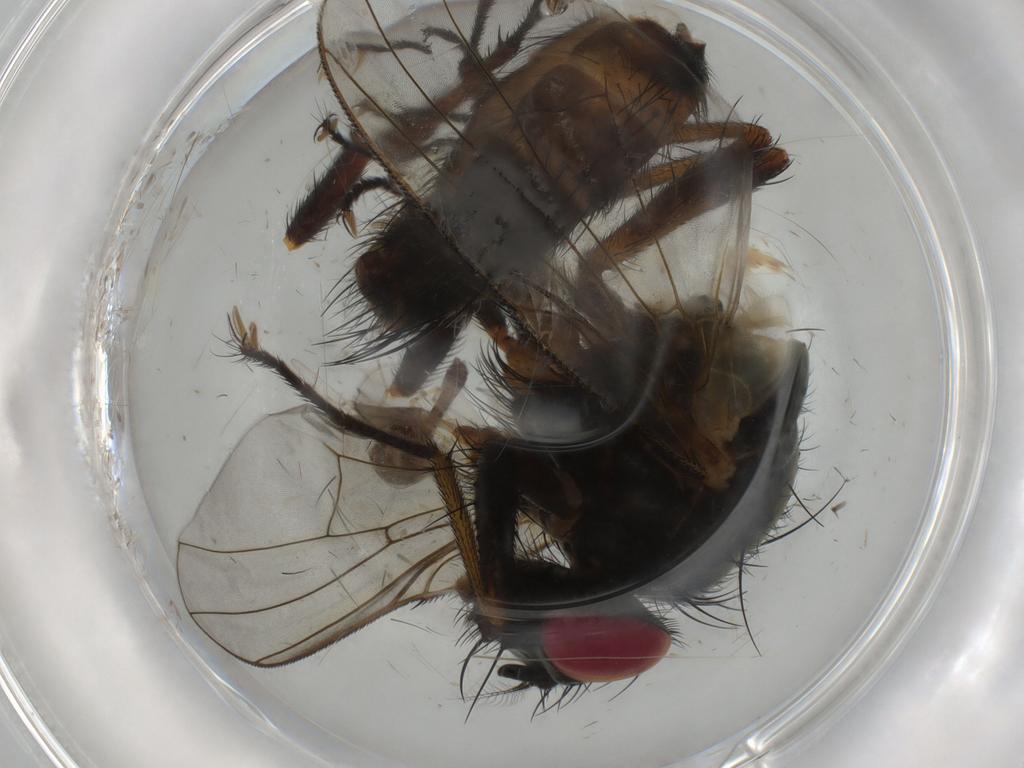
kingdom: Animalia
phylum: Arthropoda
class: Insecta
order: Diptera
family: Muscidae
